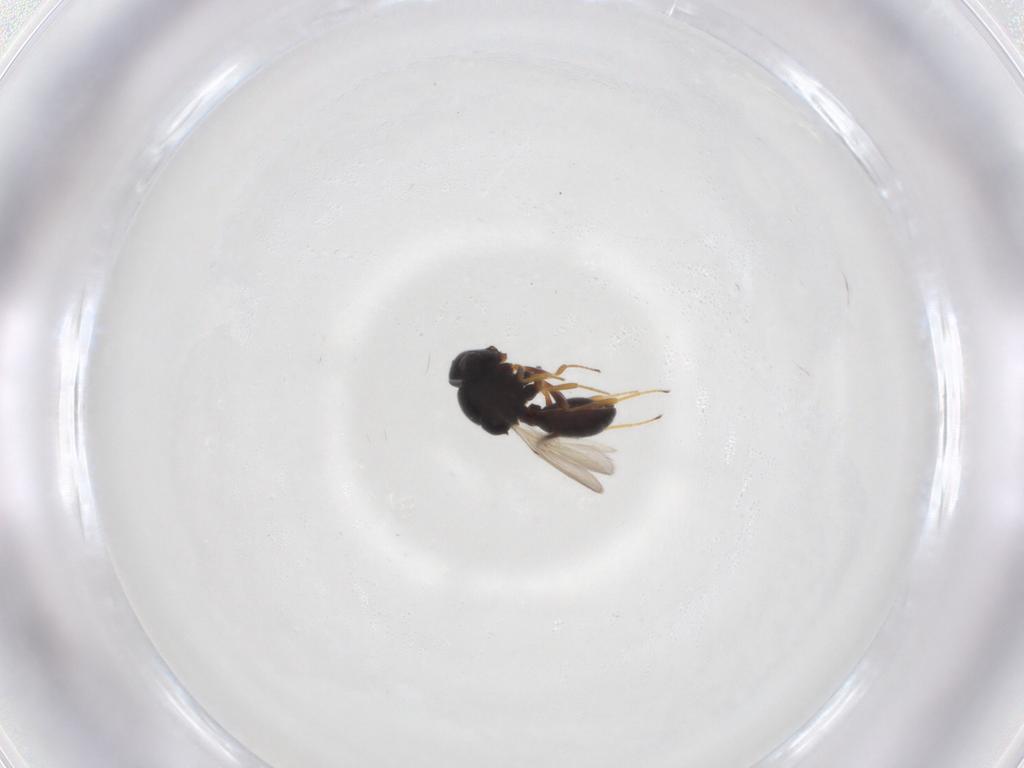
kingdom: Animalia
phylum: Arthropoda
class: Insecta
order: Hymenoptera
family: Scelionidae
